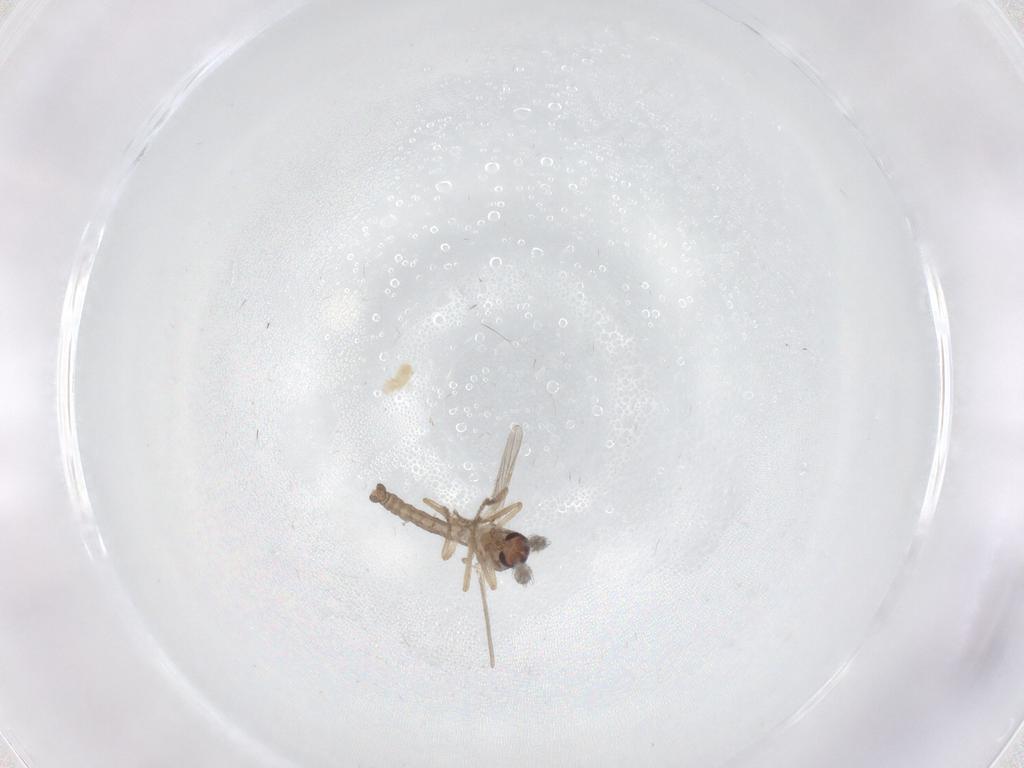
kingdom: Animalia
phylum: Arthropoda
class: Insecta
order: Diptera
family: Ceratopogonidae
